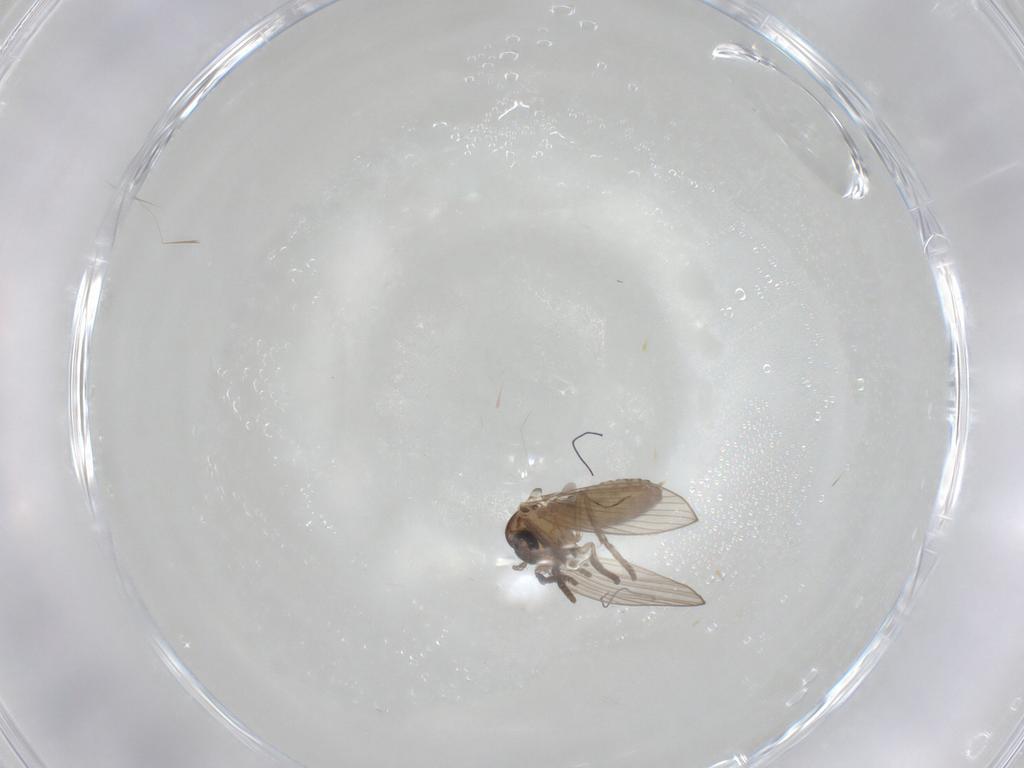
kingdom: Animalia
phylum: Arthropoda
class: Insecta
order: Diptera
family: Psychodidae
